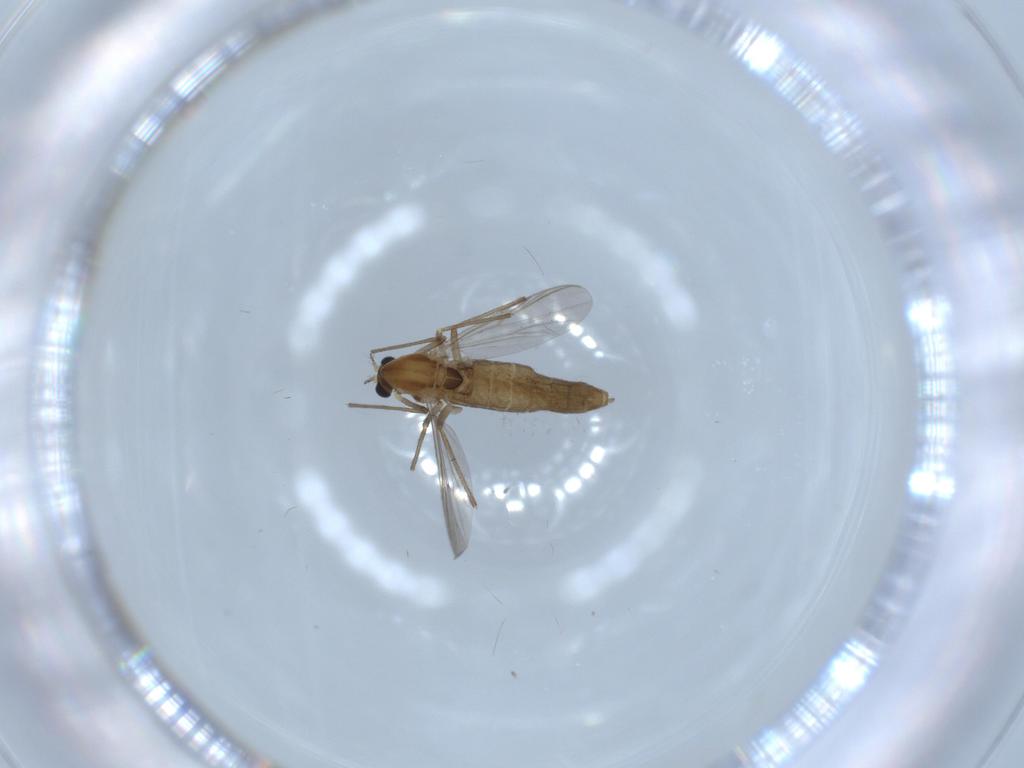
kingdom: Animalia
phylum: Arthropoda
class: Insecta
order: Diptera
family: Chironomidae
